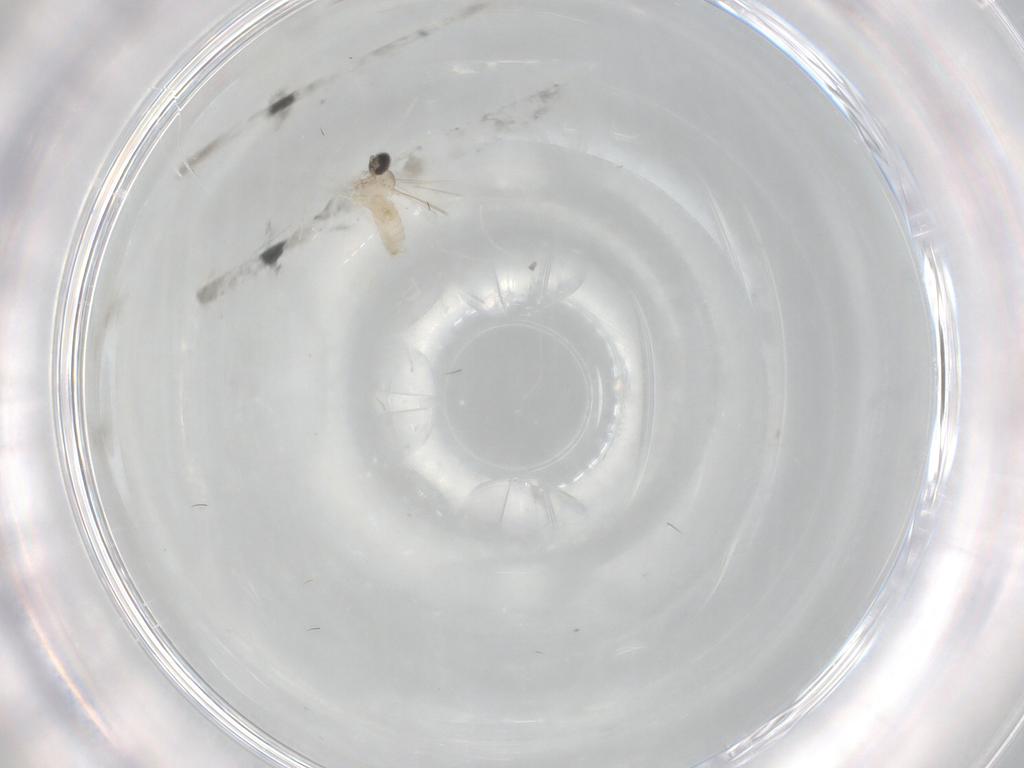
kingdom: Animalia
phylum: Arthropoda
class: Insecta
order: Diptera
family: Cecidomyiidae
